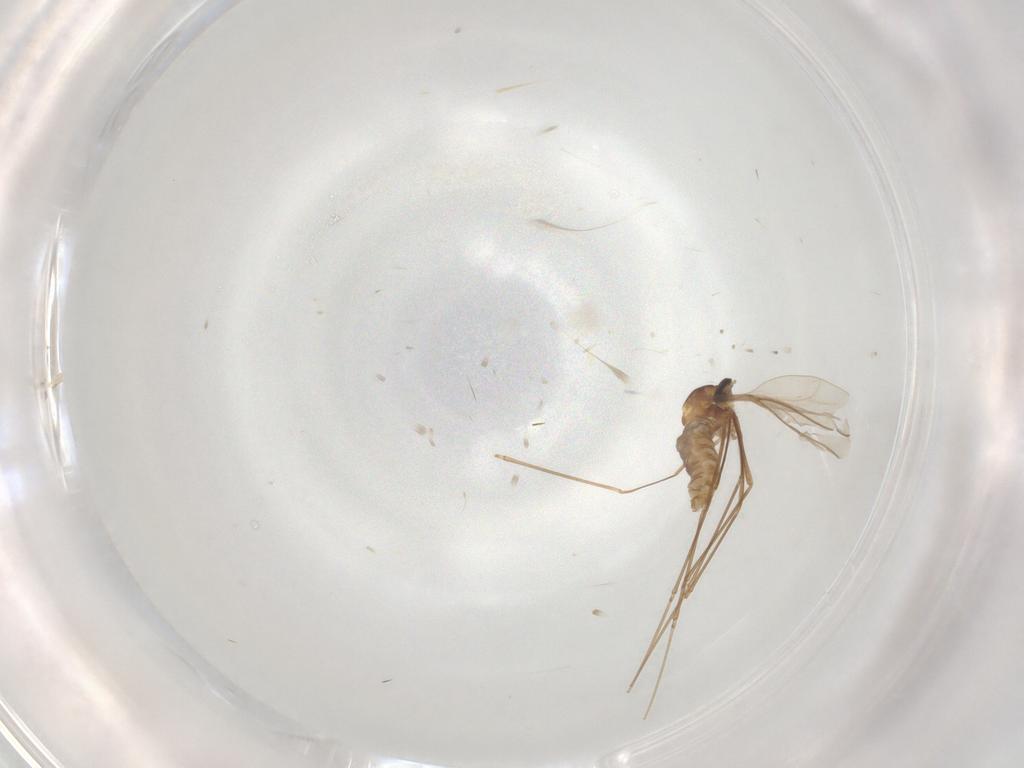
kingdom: Animalia
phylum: Arthropoda
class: Insecta
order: Diptera
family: Cecidomyiidae
